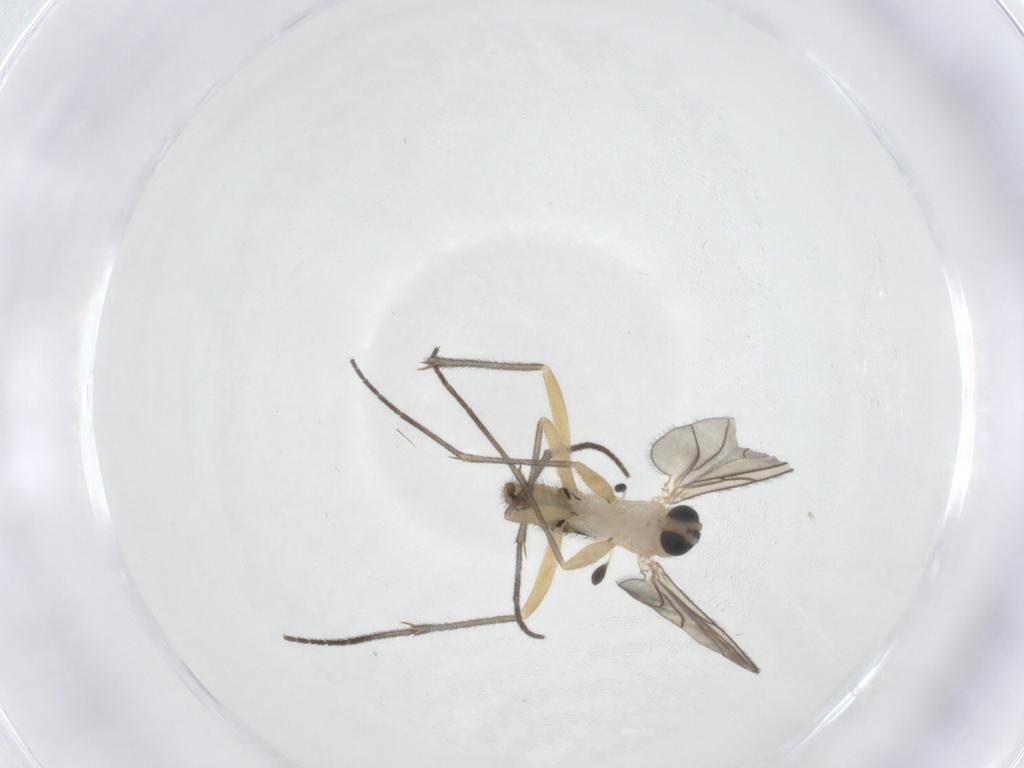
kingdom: Animalia
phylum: Arthropoda
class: Insecta
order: Diptera
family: Sciaridae
